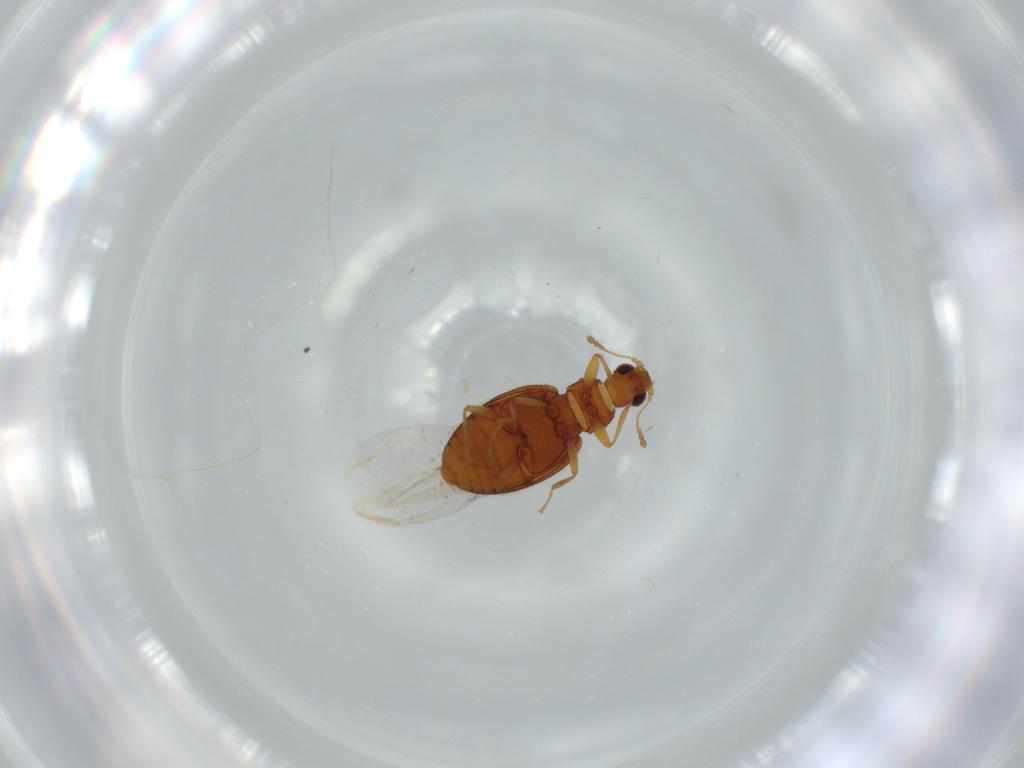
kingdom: Animalia
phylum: Arthropoda
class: Insecta
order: Coleoptera
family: Latridiidae
